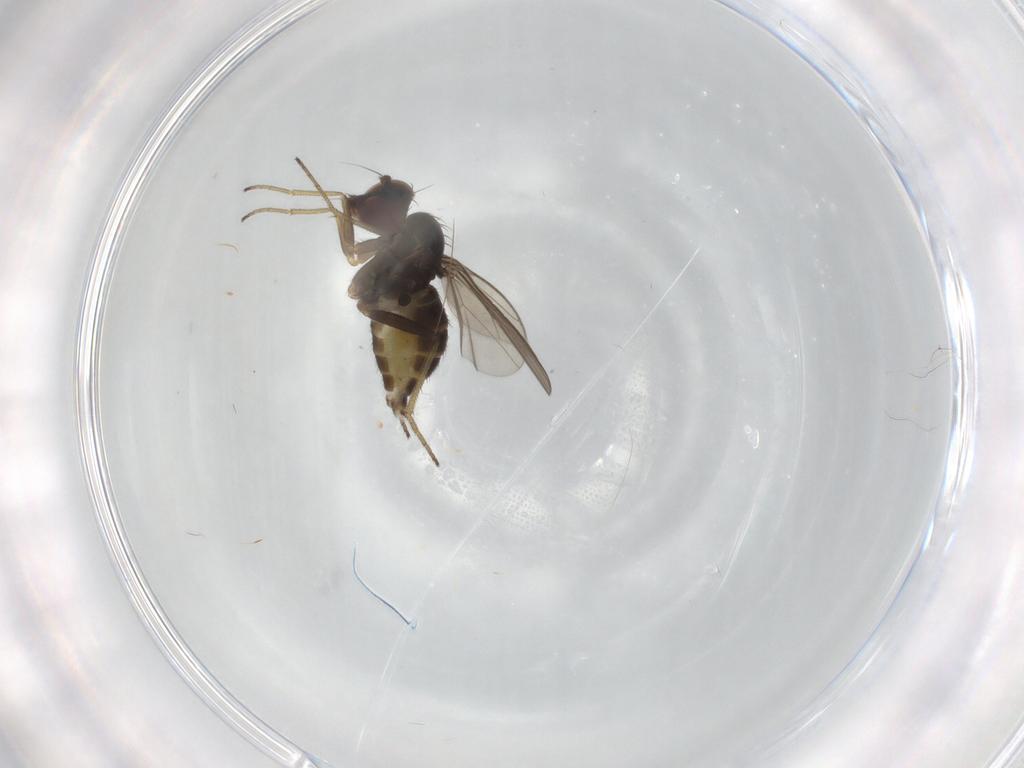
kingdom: Animalia
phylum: Arthropoda
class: Insecta
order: Diptera
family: Dolichopodidae
